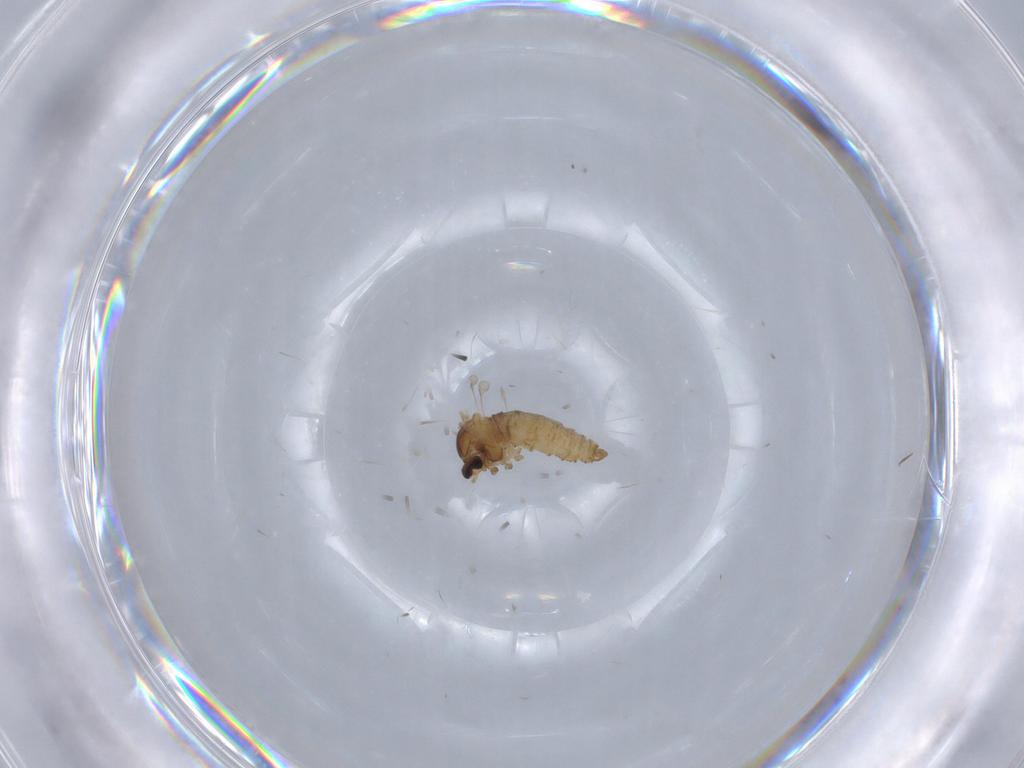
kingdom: Animalia
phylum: Arthropoda
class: Insecta
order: Diptera
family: Cecidomyiidae
